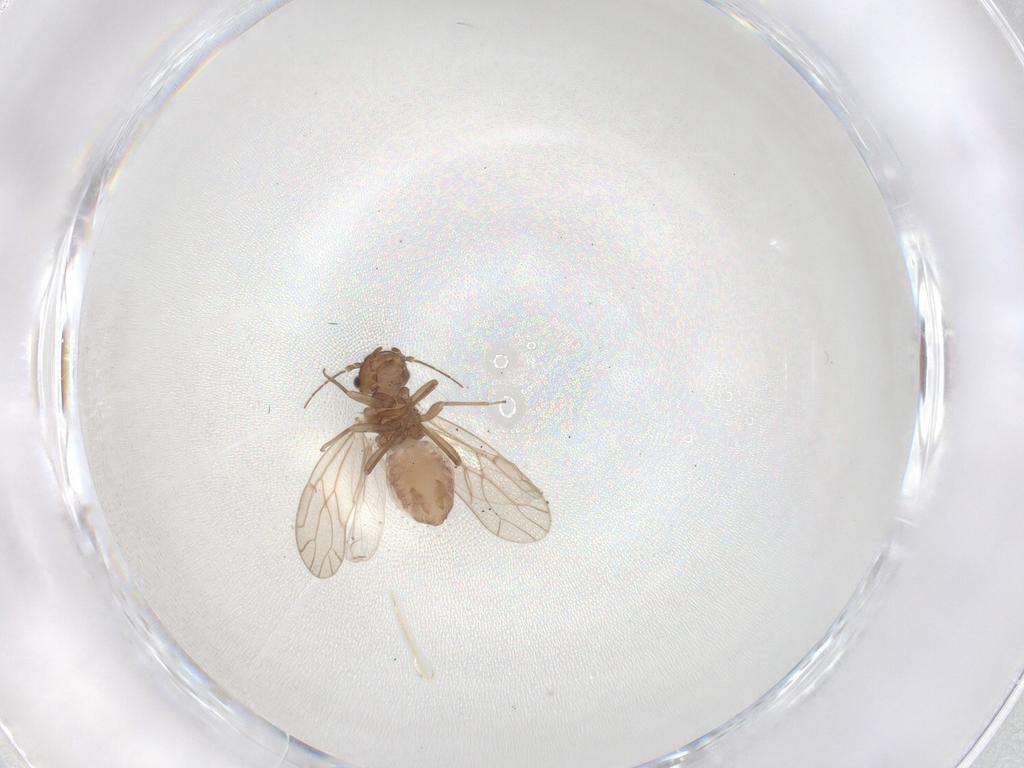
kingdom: Animalia
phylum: Arthropoda
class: Insecta
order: Psocodea
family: Ectopsocidae
